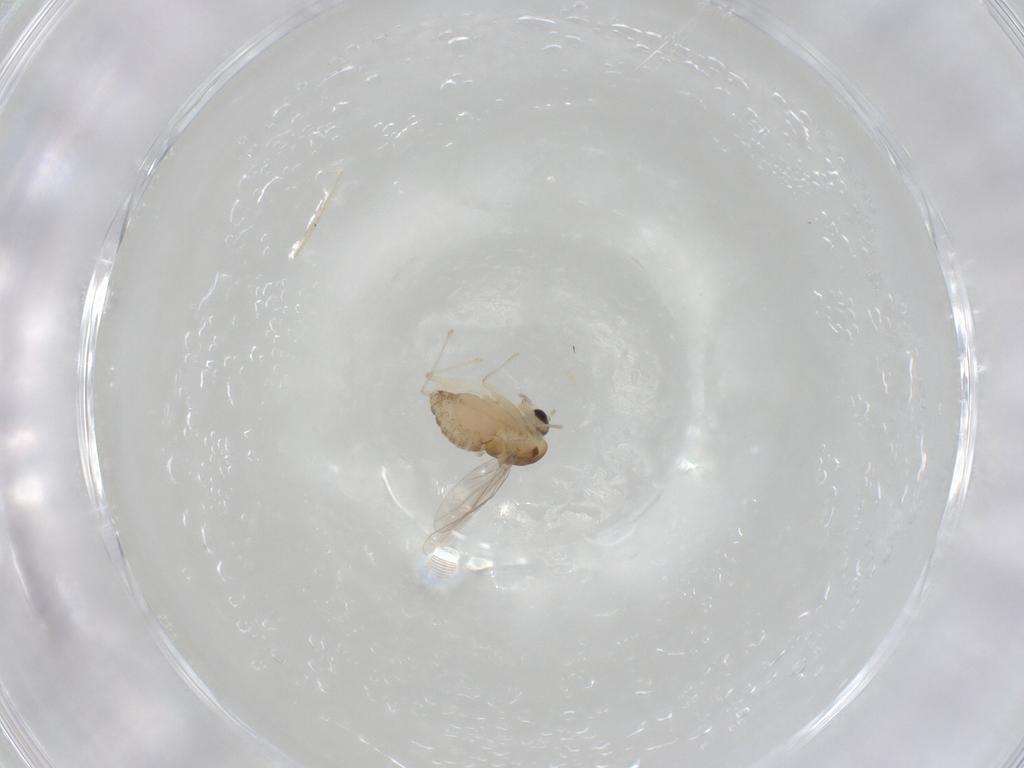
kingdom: Animalia
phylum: Arthropoda
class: Insecta
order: Diptera
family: Chironomidae
